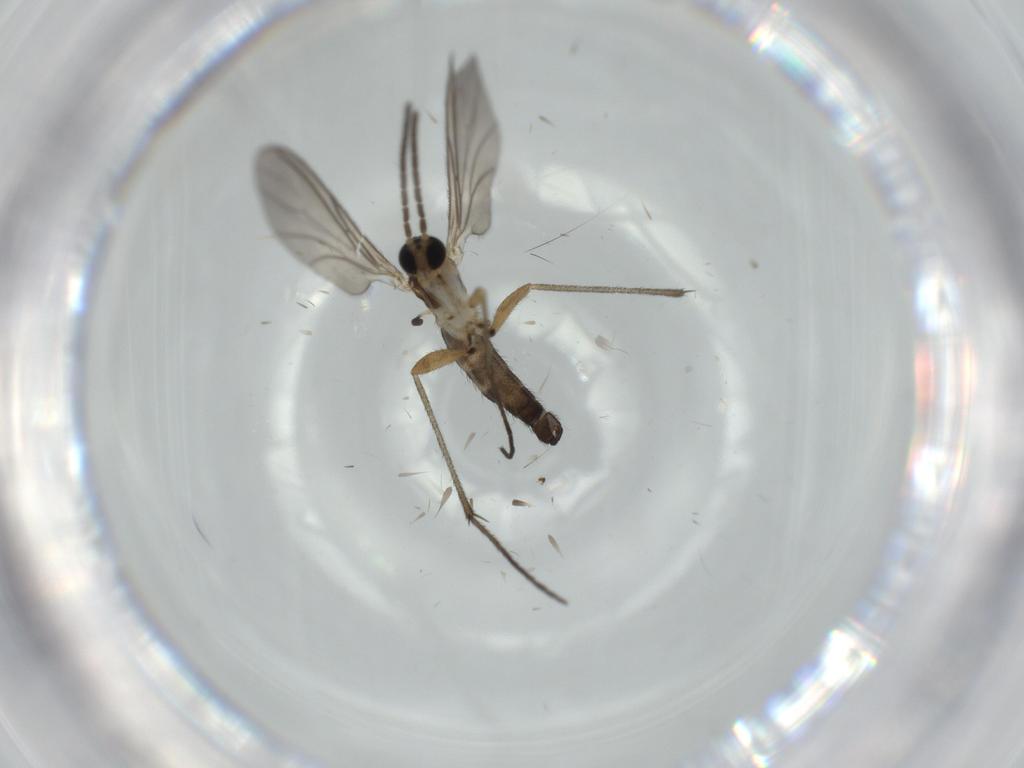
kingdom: Animalia
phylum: Arthropoda
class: Insecta
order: Diptera
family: Sciaridae
